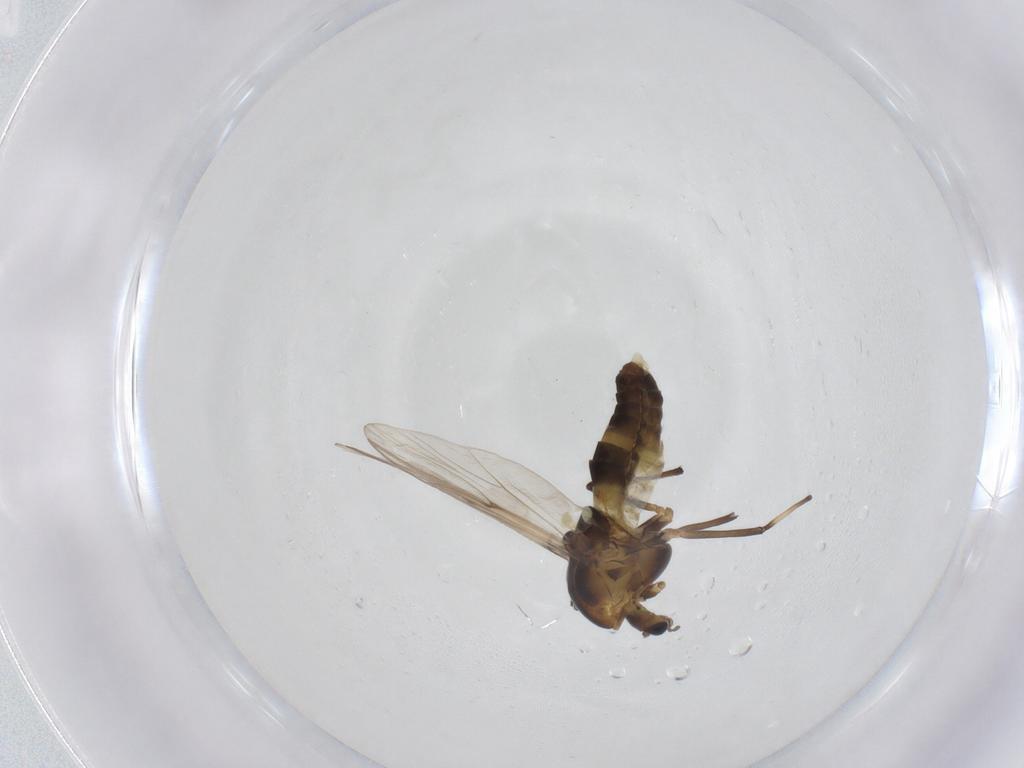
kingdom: Animalia
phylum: Arthropoda
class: Insecta
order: Diptera
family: Chironomidae
